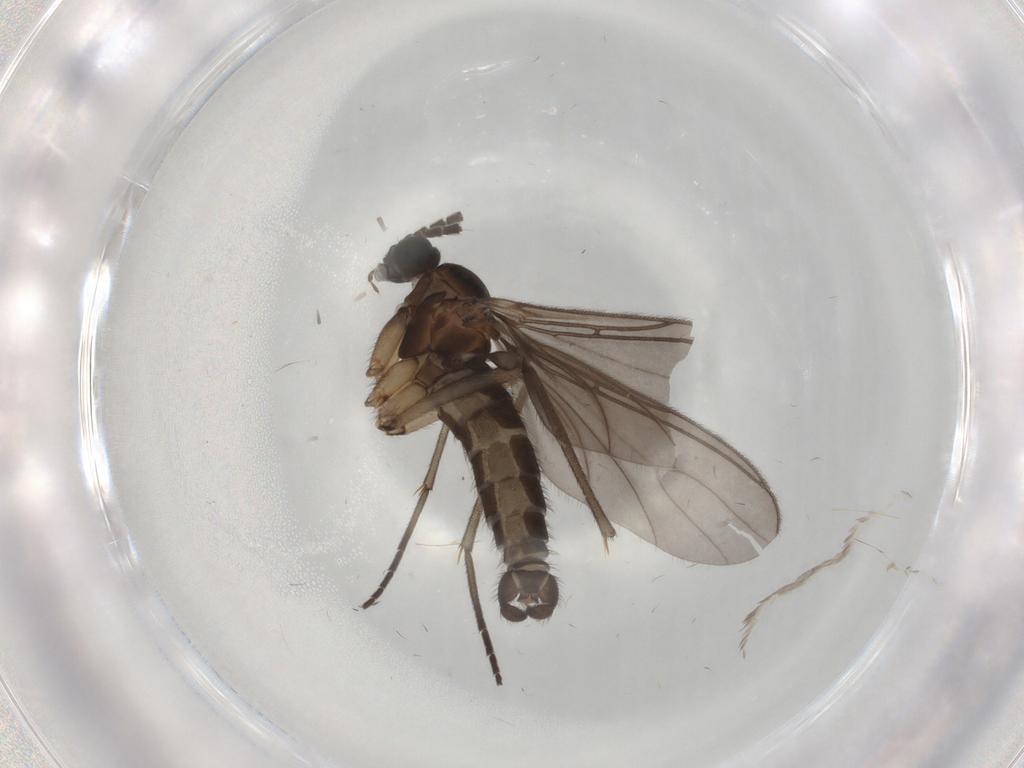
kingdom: Animalia
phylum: Arthropoda
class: Insecta
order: Diptera
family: Sciaridae
